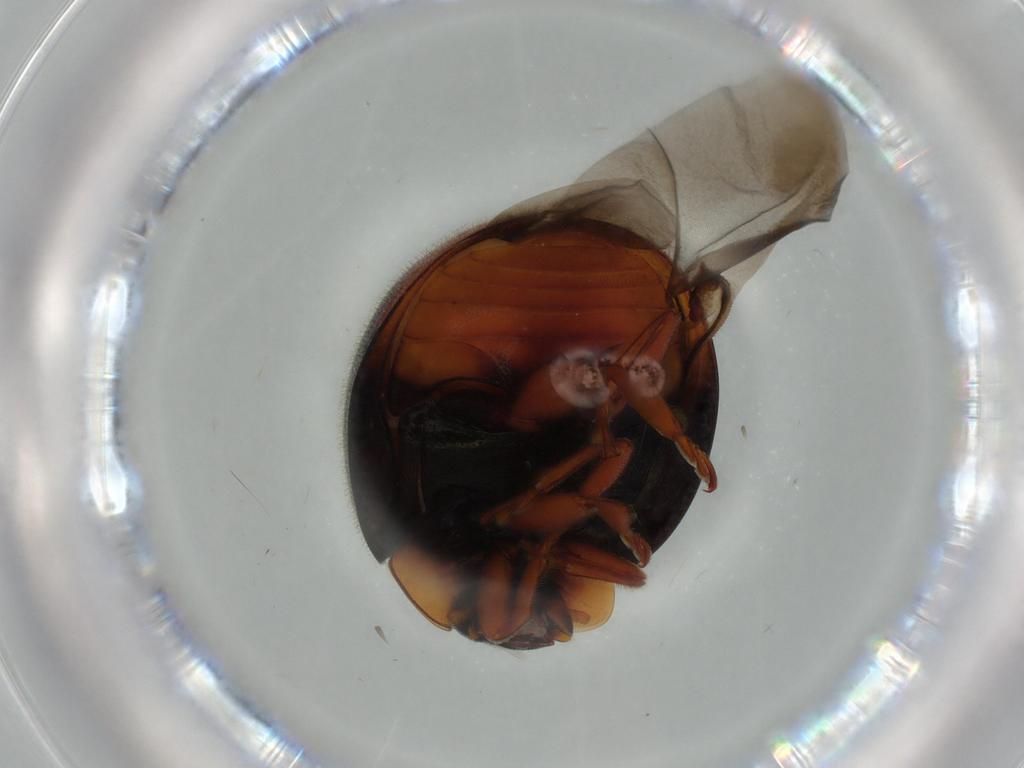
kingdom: Animalia
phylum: Arthropoda
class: Insecta
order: Coleoptera
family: Coccinellidae
